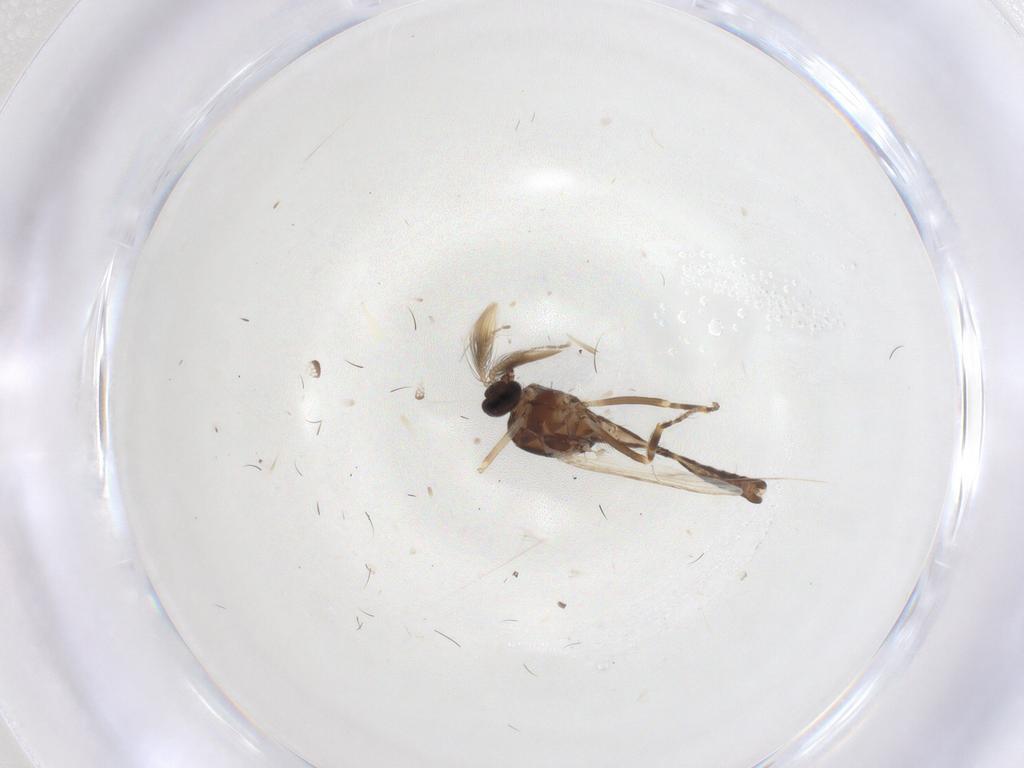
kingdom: Animalia
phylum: Arthropoda
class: Insecta
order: Diptera
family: Ceratopogonidae
